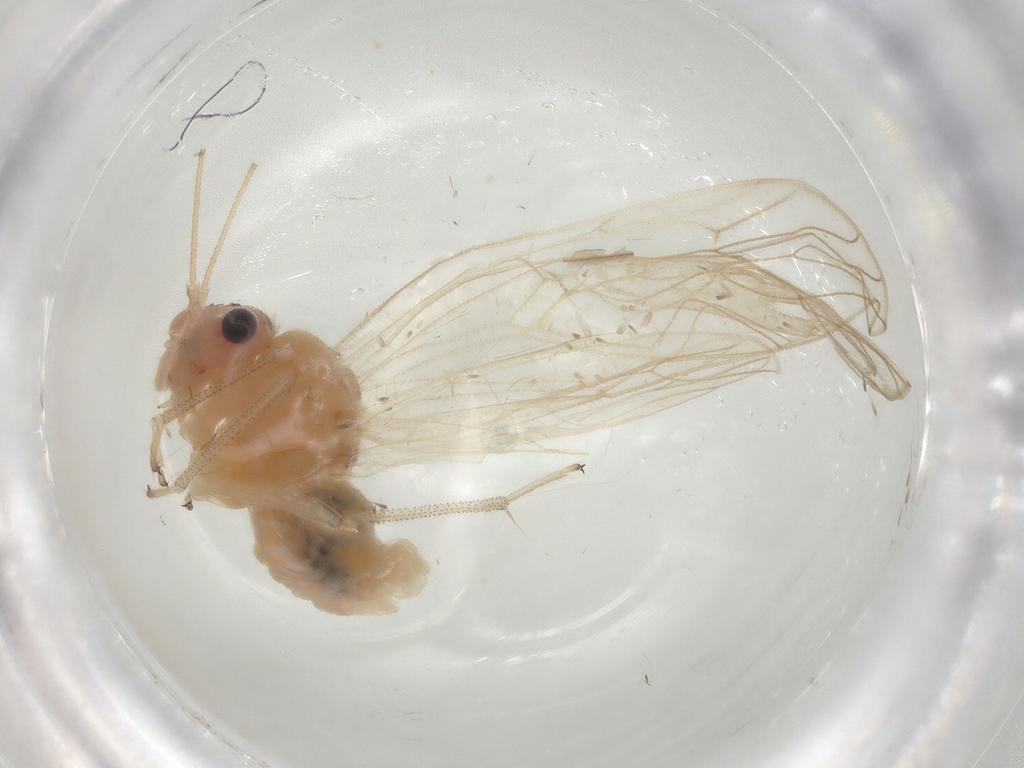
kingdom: Animalia
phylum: Arthropoda
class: Insecta
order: Psocodea
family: Amphipsocidae
